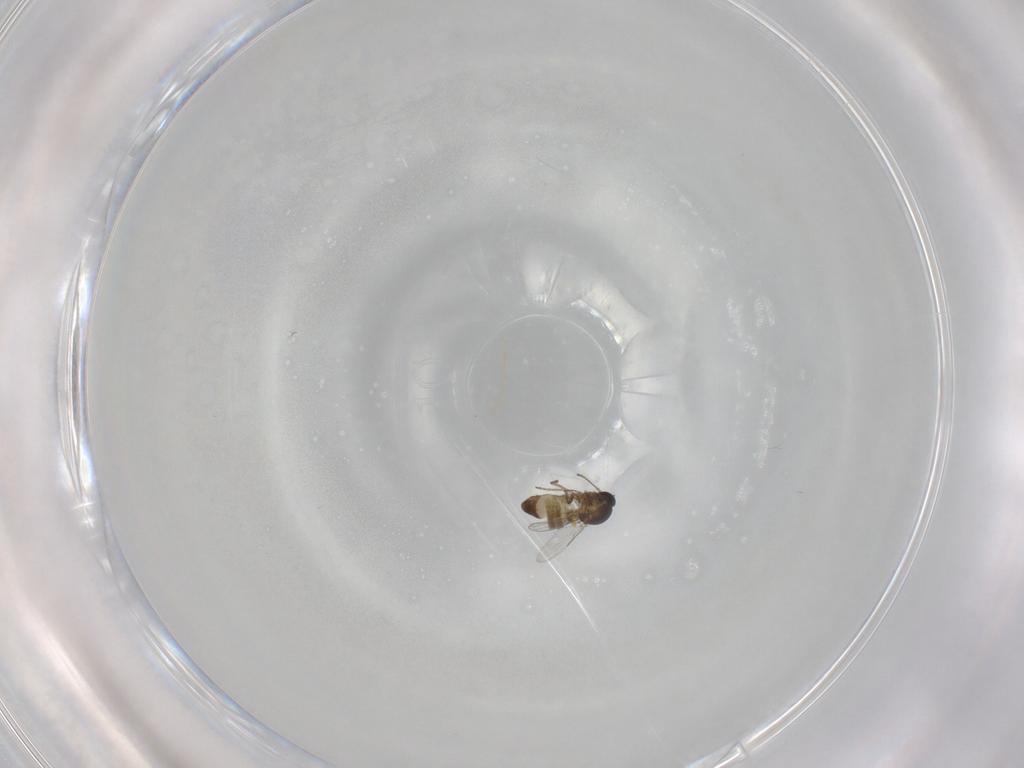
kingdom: Animalia
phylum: Arthropoda
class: Insecta
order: Diptera
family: Ceratopogonidae
